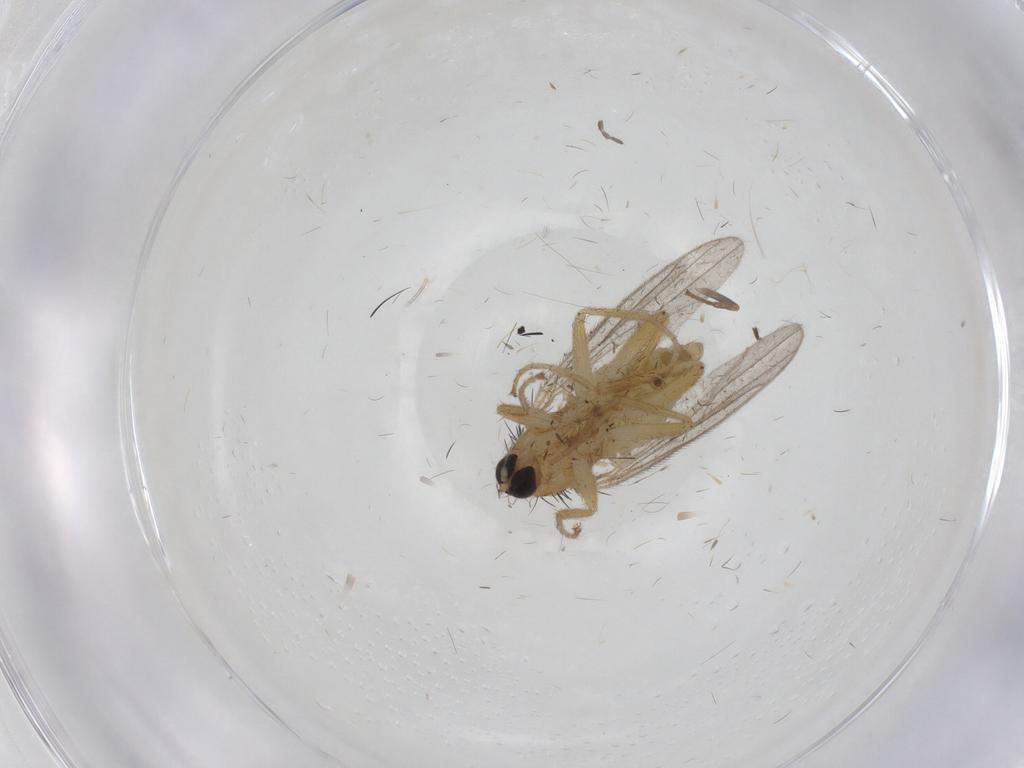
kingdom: Animalia
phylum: Arthropoda
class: Insecta
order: Diptera
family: Hybotidae
